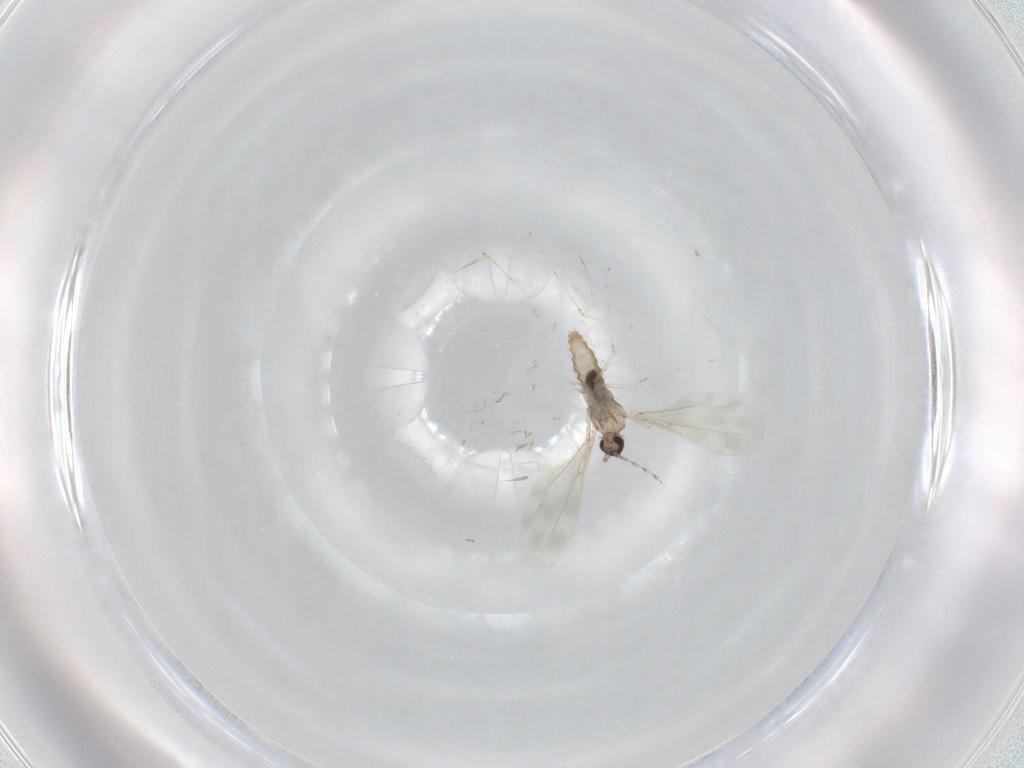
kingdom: Animalia
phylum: Arthropoda
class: Insecta
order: Diptera
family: Cecidomyiidae
